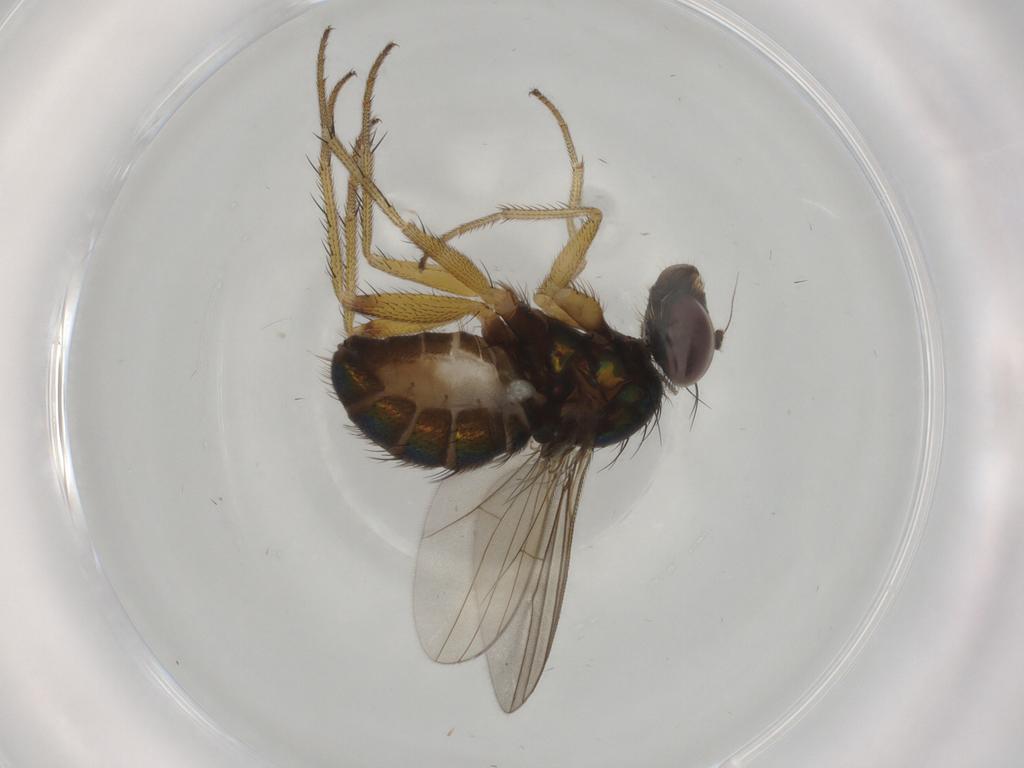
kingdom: Animalia
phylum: Arthropoda
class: Insecta
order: Diptera
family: Dolichopodidae
